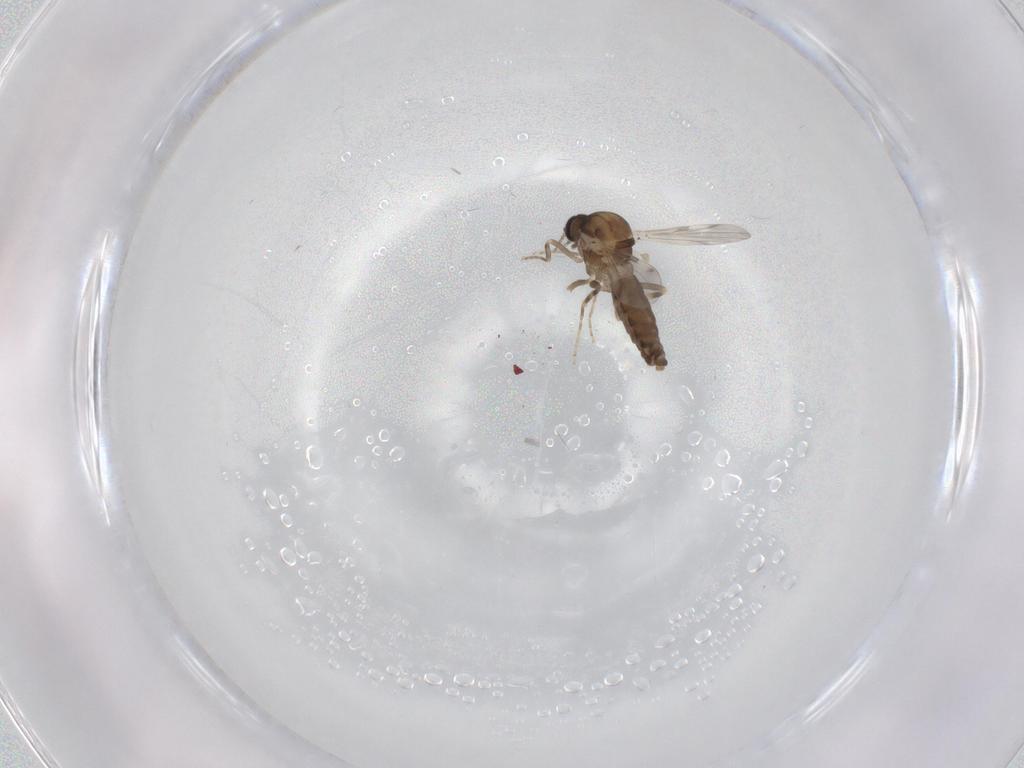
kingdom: Animalia
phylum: Arthropoda
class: Insecta
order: Diptera
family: Ceratopogonidae
